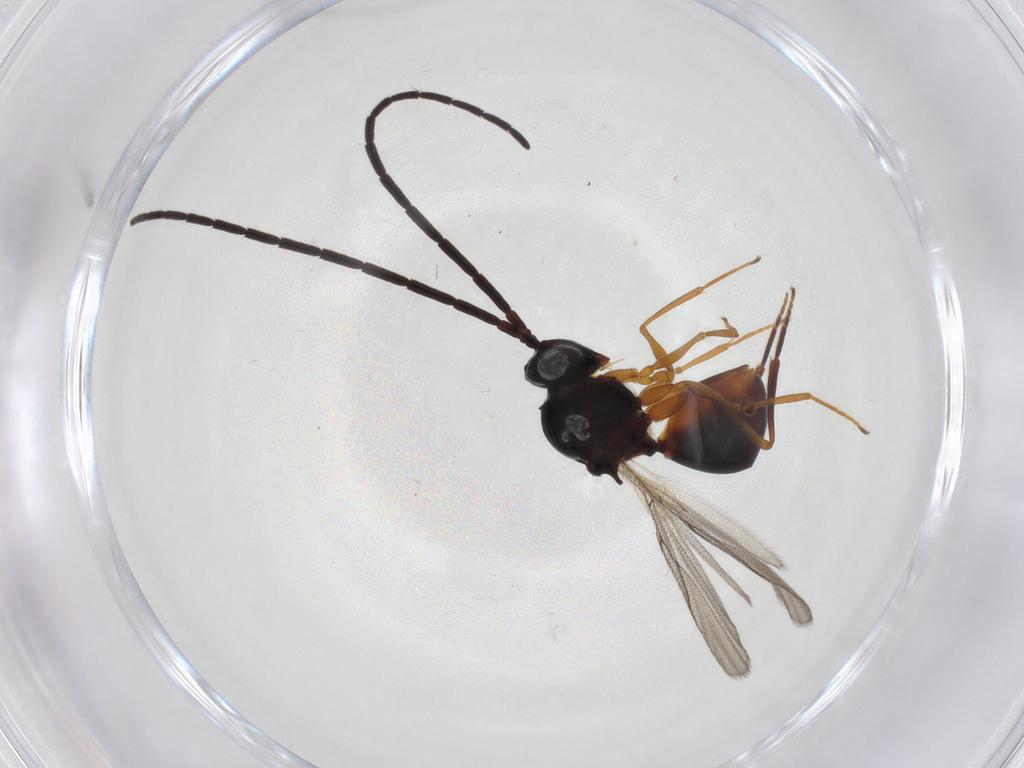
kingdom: Animalia
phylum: Arthropoda
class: Insecta
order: Hymenoptera
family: Figitidae
